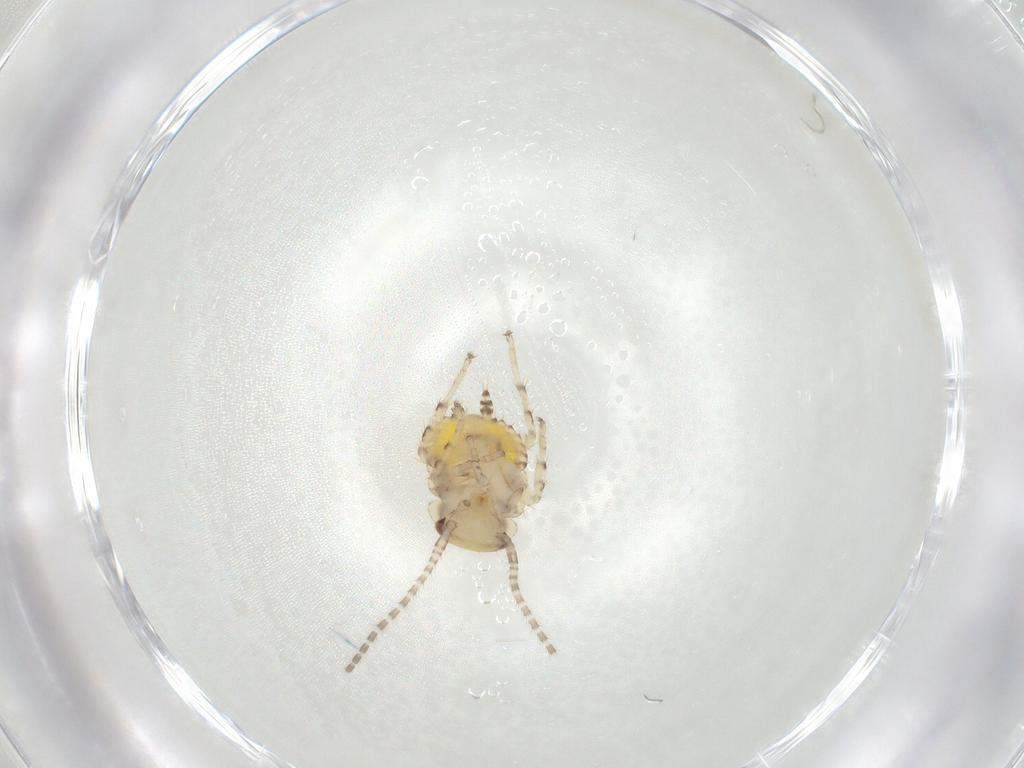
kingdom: Animalia
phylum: Arthropoda
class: Insecta
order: Blattodea
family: Ectobiidae
